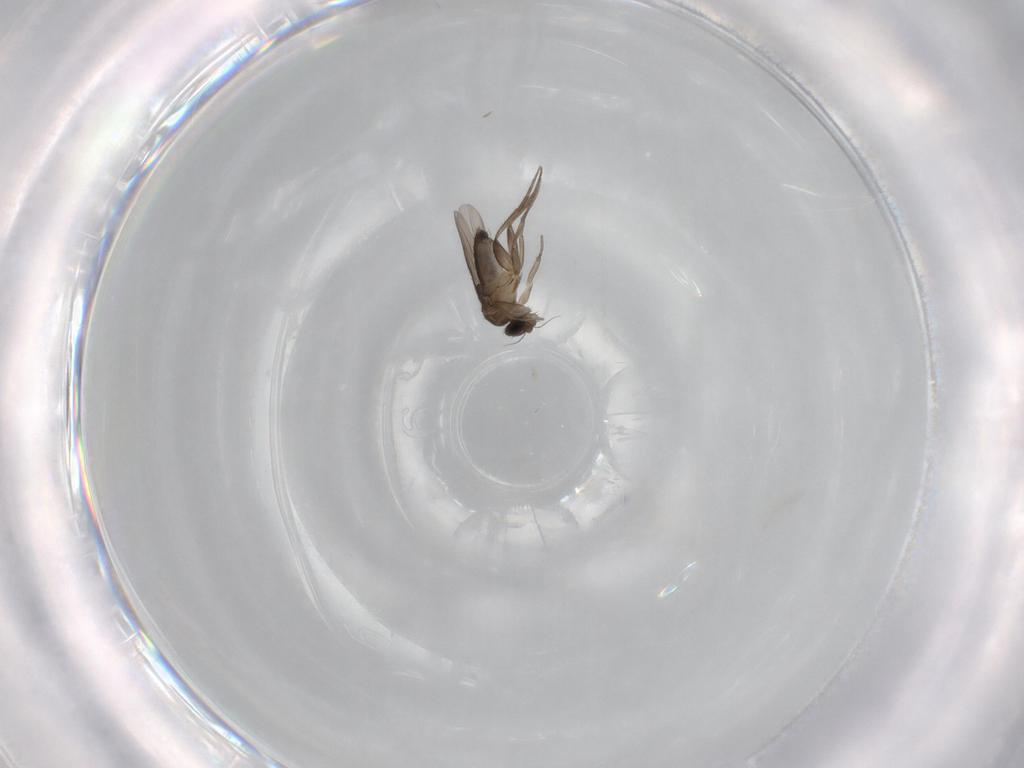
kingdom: Animalia
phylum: Arthropoda
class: Insecta
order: Diptera
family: Phoridae
